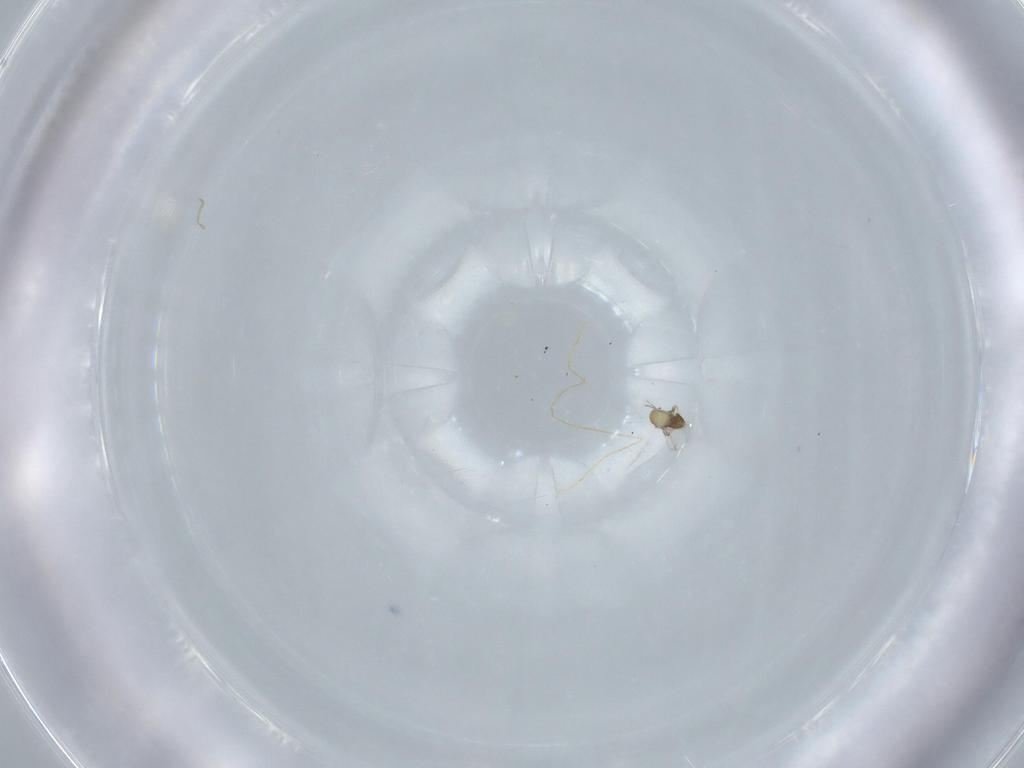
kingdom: Animalia
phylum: Arthropoda
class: Insecta
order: Hymenoptera
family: Trichogrammatidae
